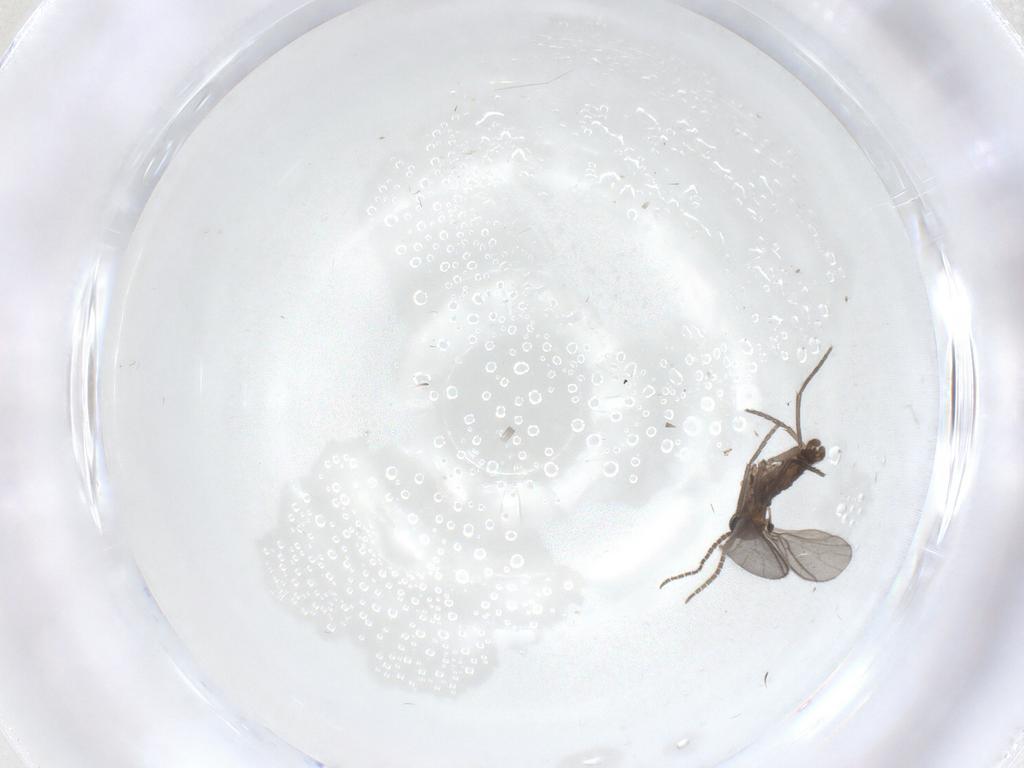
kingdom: Animalia
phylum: Arthropoda
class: Insecta
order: Diptera
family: Sciaridae
